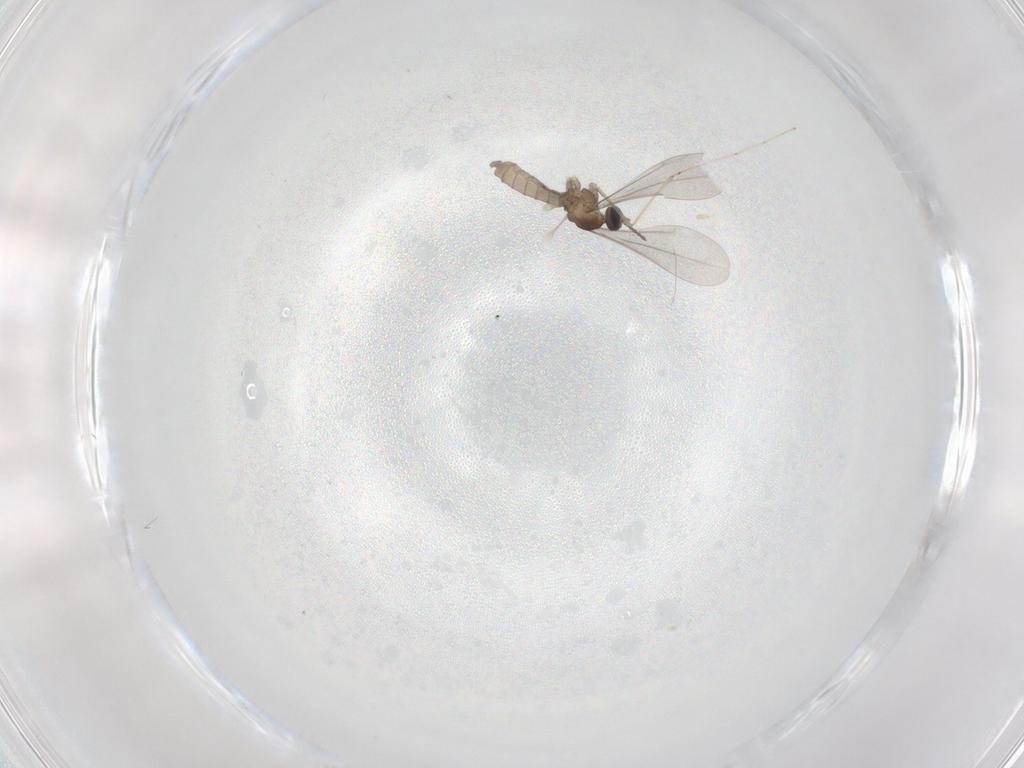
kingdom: Animalia
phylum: Arthropoda
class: Insecta
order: Diptera
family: Cecidomyiidae
